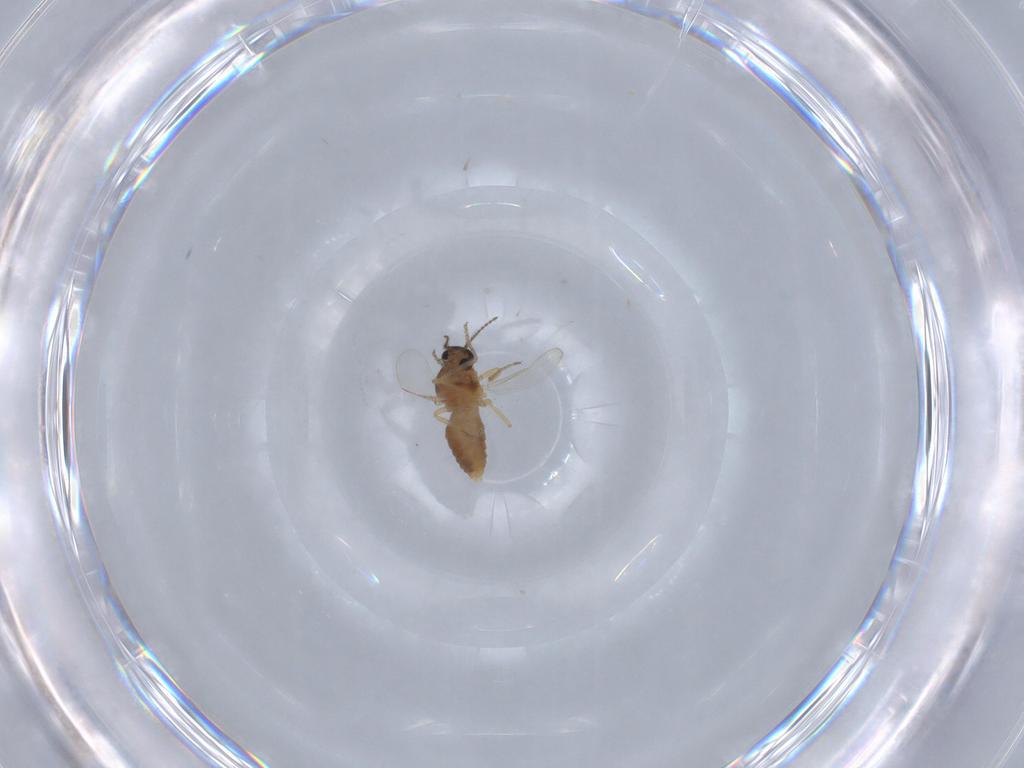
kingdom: Animalia
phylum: Arthropoda
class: Insecta
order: Diptera
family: Ceratopogonidae
